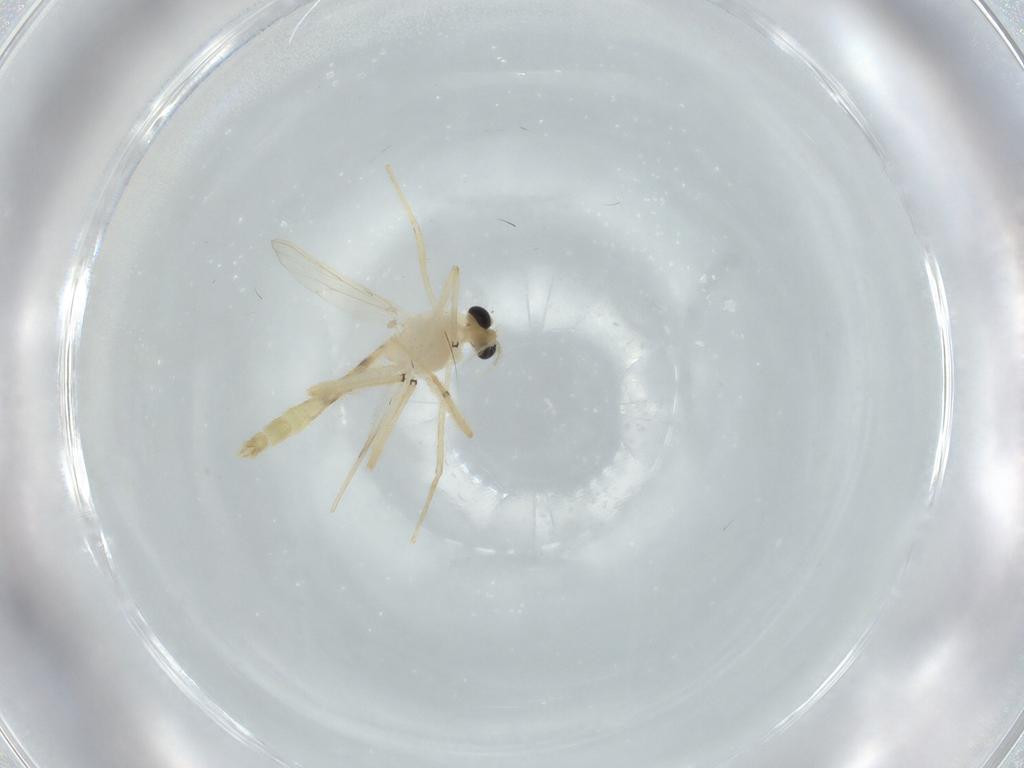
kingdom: Animalia
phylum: Arthropoda
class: Insecta
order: Diptera
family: Chironomidae
